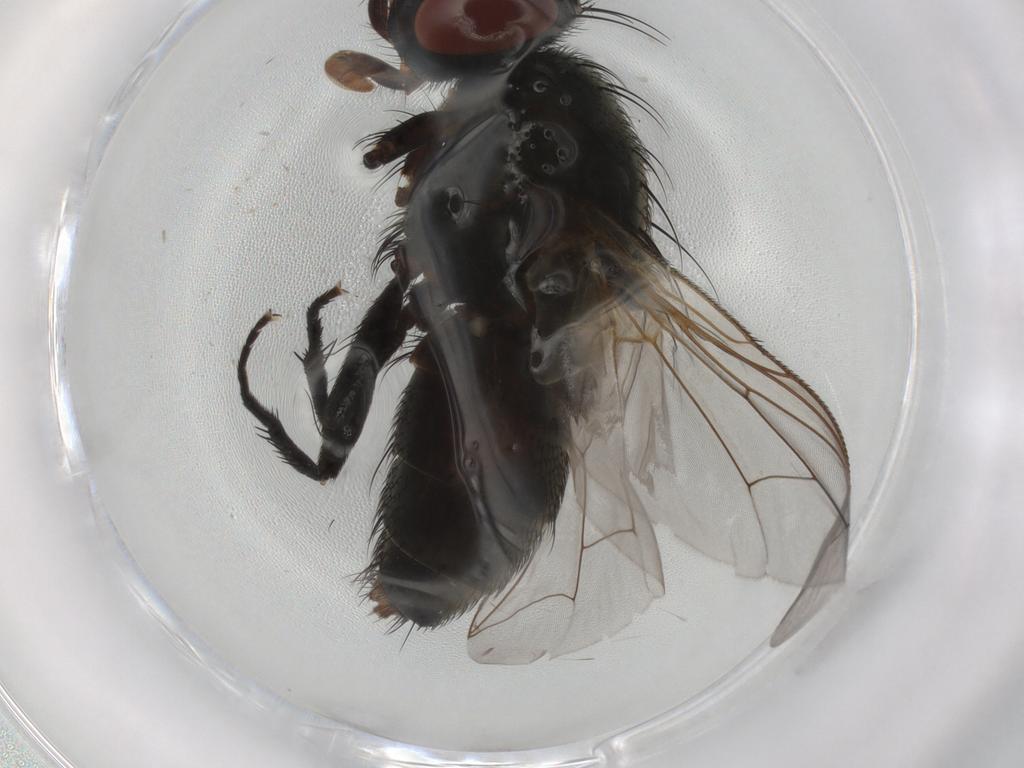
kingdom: Animalia
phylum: Arthropoda
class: Insecta
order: Diptera
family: Sarcophagidae
